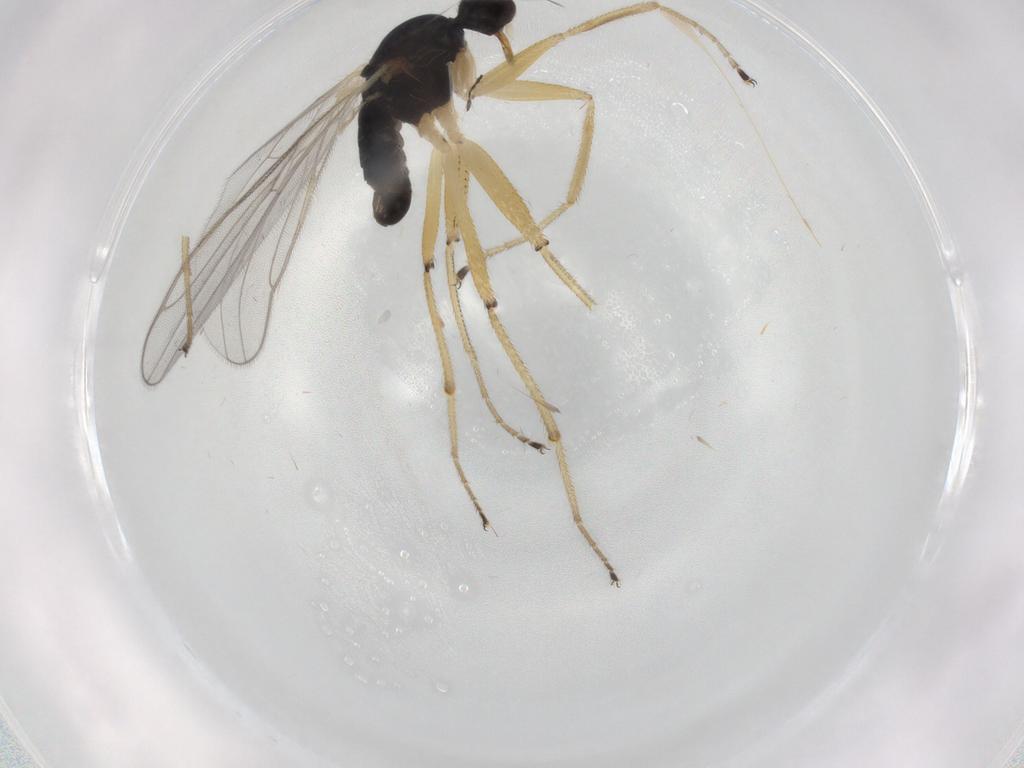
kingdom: Animalia
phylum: Arthropoda
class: Insecta
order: Diptera
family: Hybotidae
